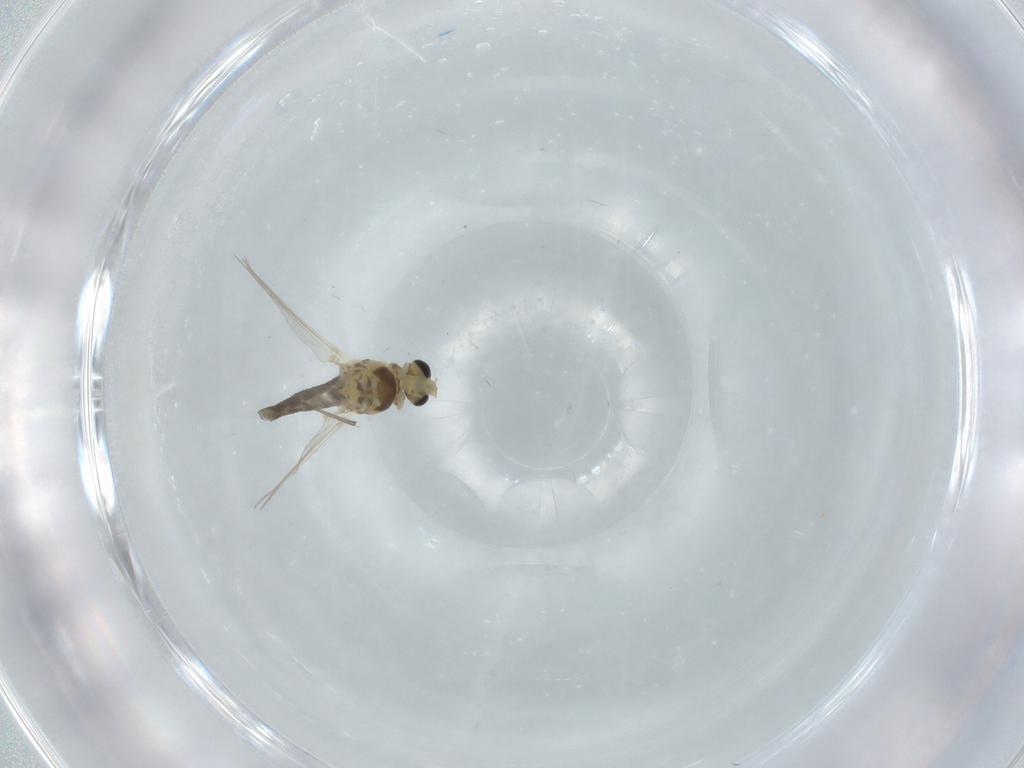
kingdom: Animalia
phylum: Arthropoda
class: Insecta
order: Diptera
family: Chironomidae
